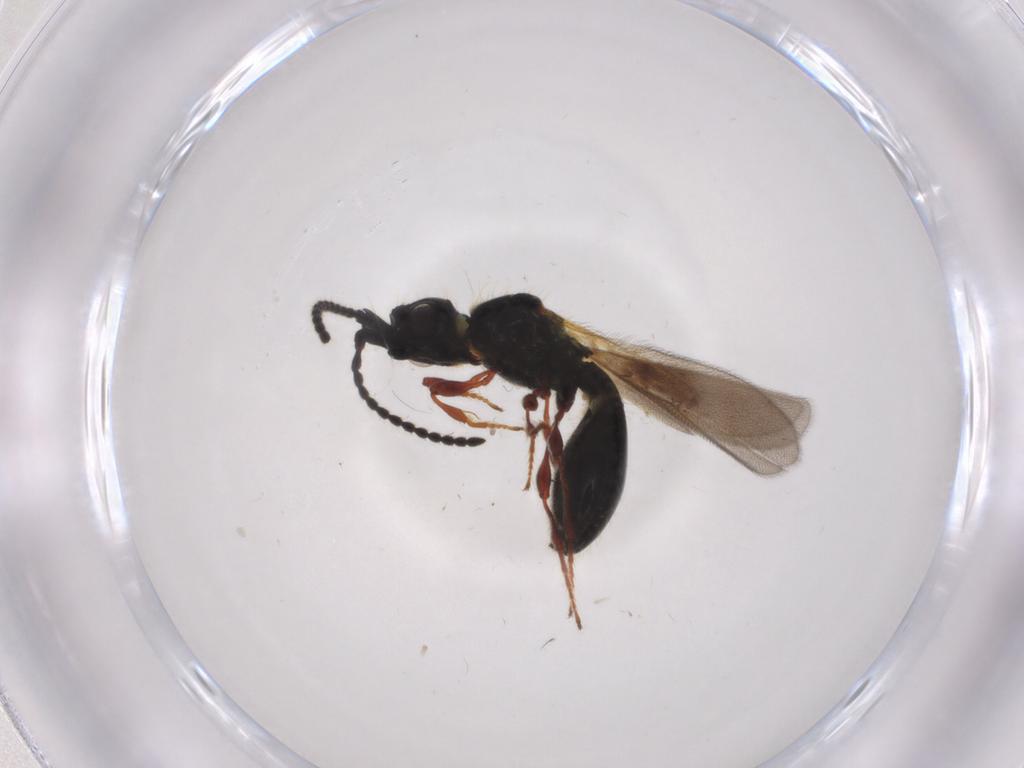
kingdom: Animalia
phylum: Arthropoda
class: Insecta
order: Hymenoptera
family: Diapriidae
